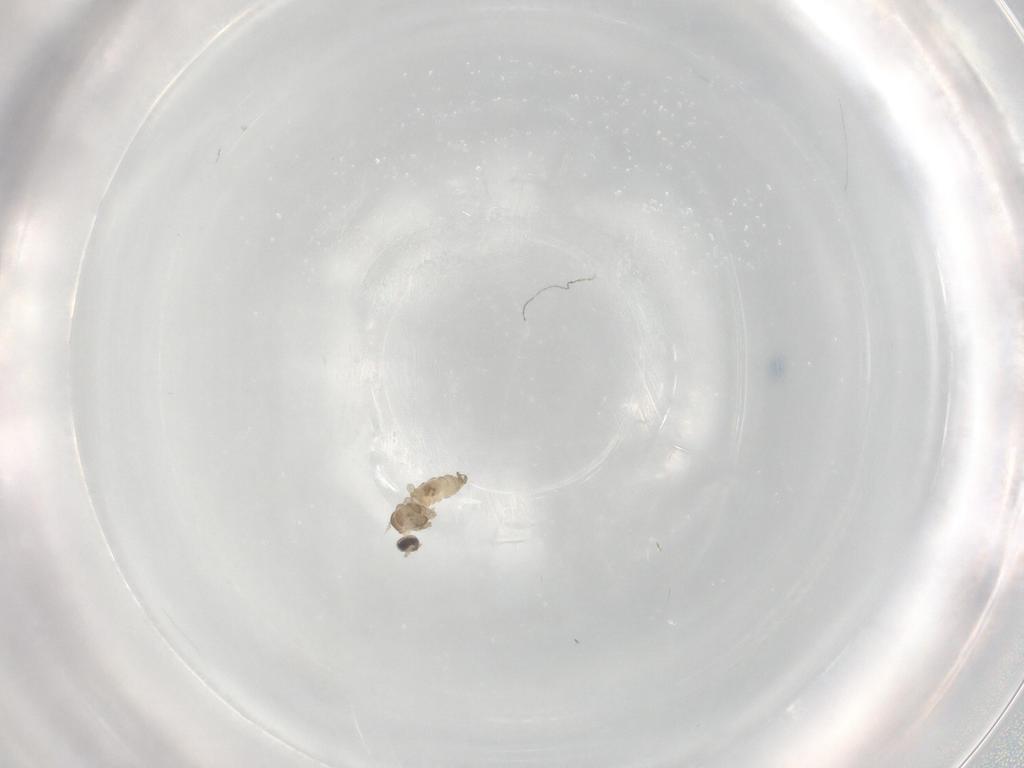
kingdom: Animalia
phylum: Arthropoda
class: Insecta
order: Diptera
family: Cecidomyiidae
